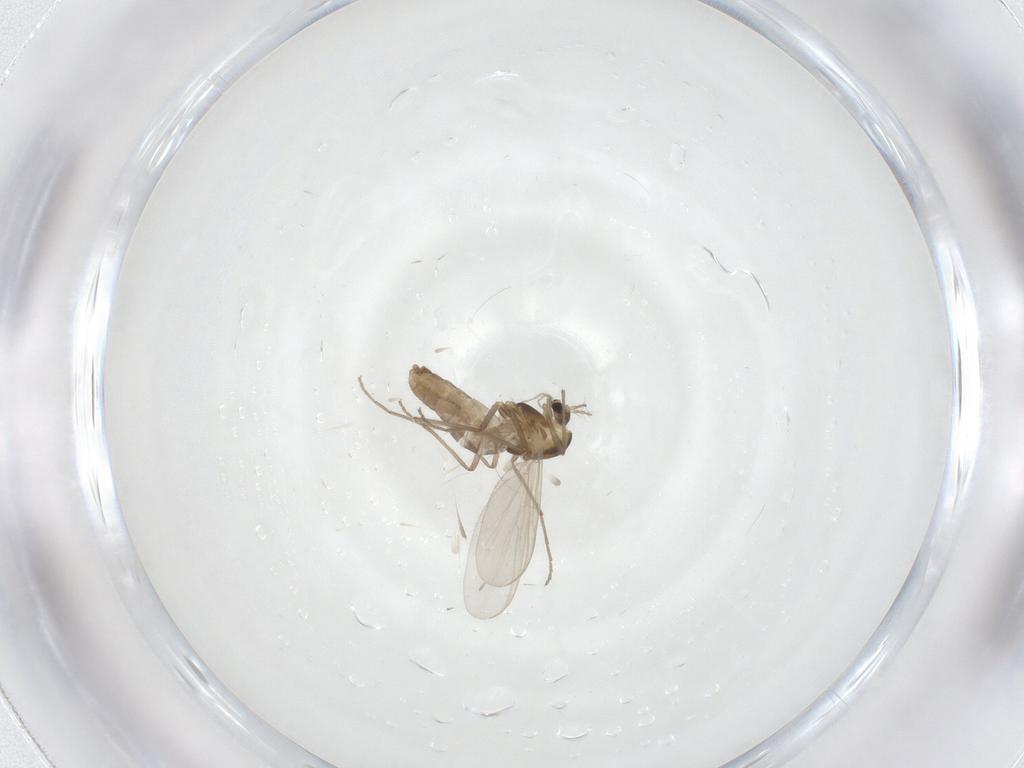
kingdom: Animalia
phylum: Arthropoda
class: Insecta
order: Diptera
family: Chironomidae
